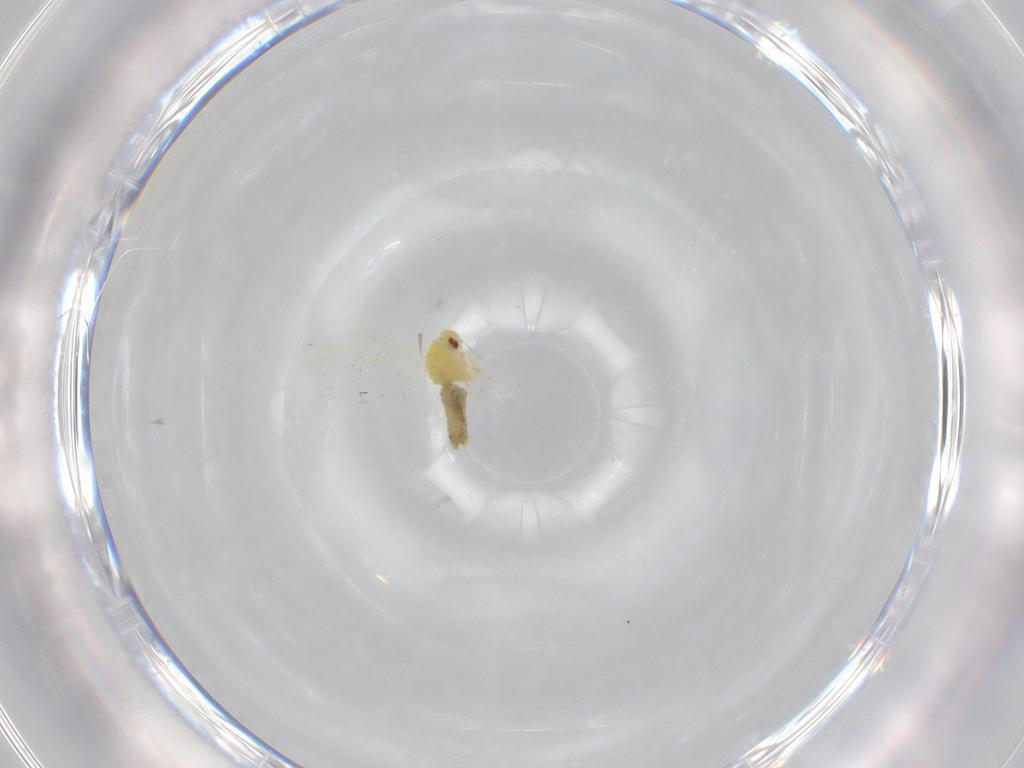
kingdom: Animalia
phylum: Arthropoda
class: Insecta
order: Hemiptera
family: Aleyrodidae
